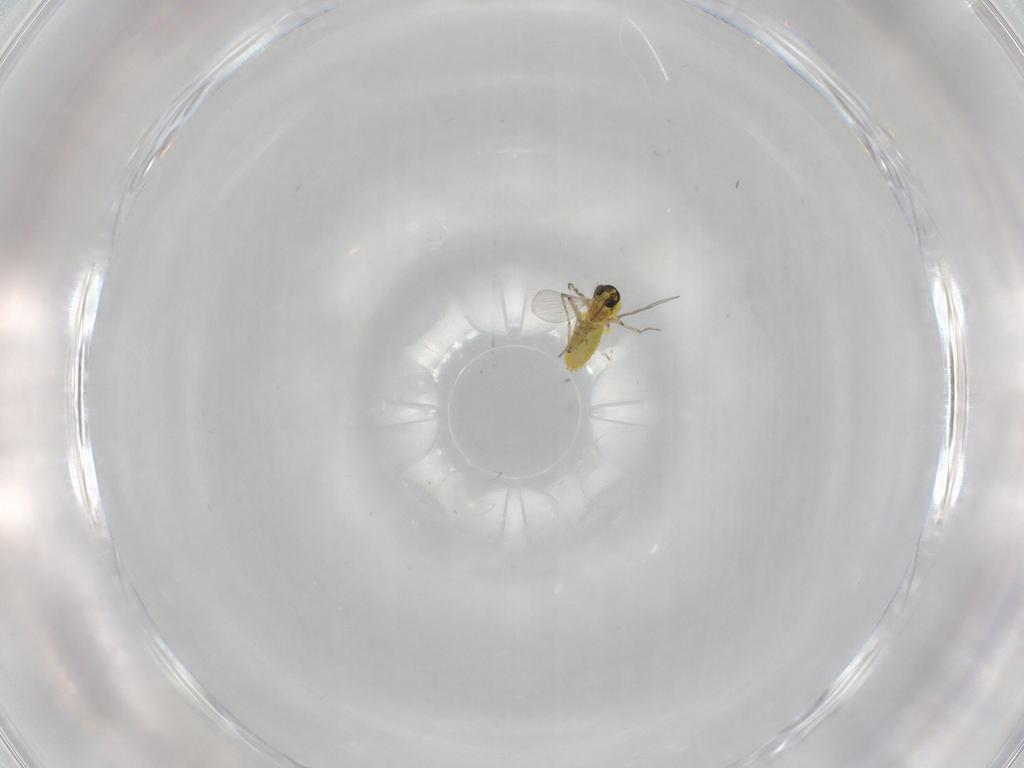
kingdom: Animalia
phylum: Arthropoda
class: Insecta
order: Diptera
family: Ceratopogonidae
